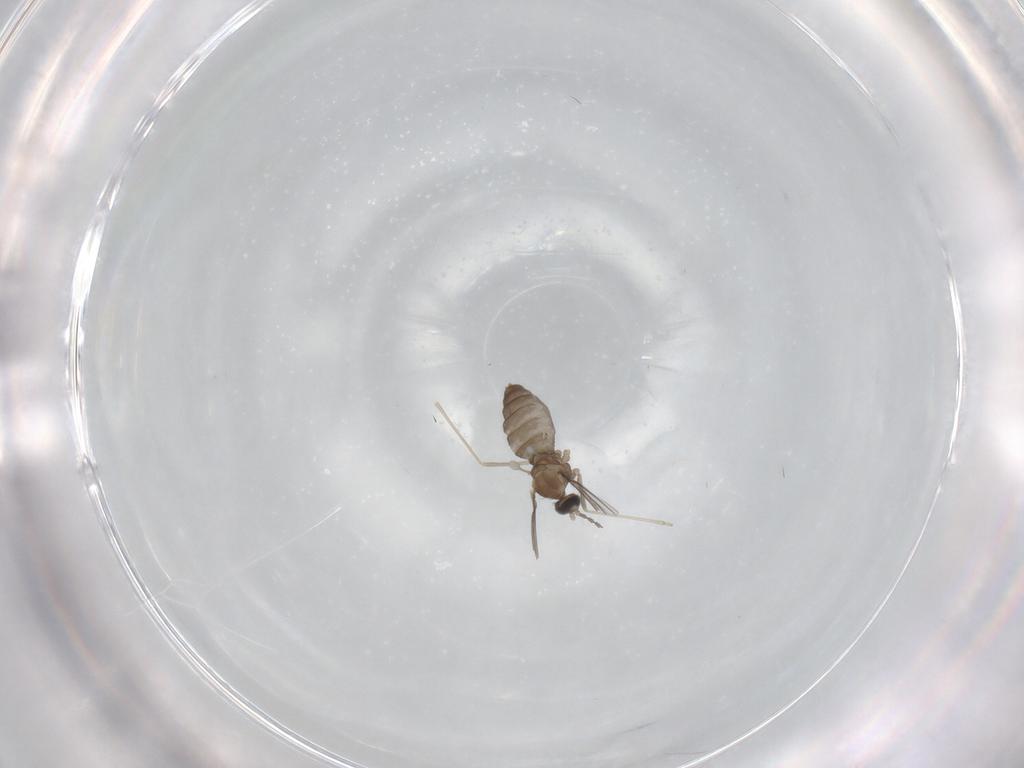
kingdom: Animalia
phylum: Arthropoda
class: Insecta
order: Diptera
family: Cecidomyiidae
